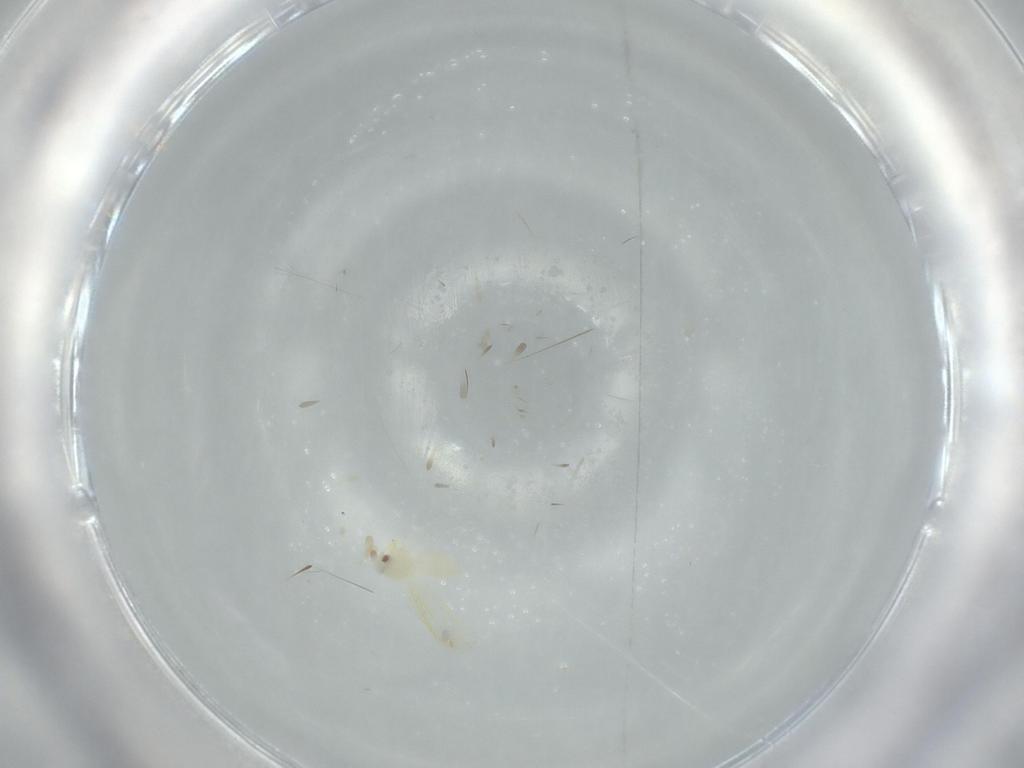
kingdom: Animalia
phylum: Arthropoda
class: Insecta
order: Hemiptera
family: Aleyrodidae
